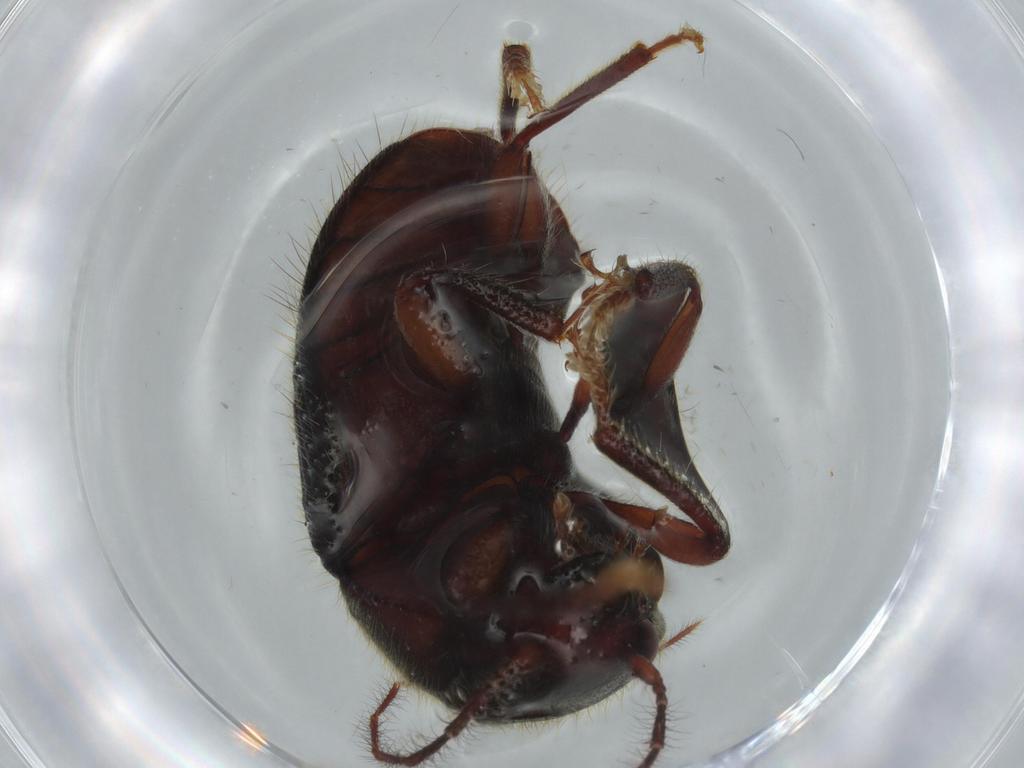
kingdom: Animalia
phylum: Arthropoda
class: Insecta
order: Coleoptera
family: Artematopodidae
